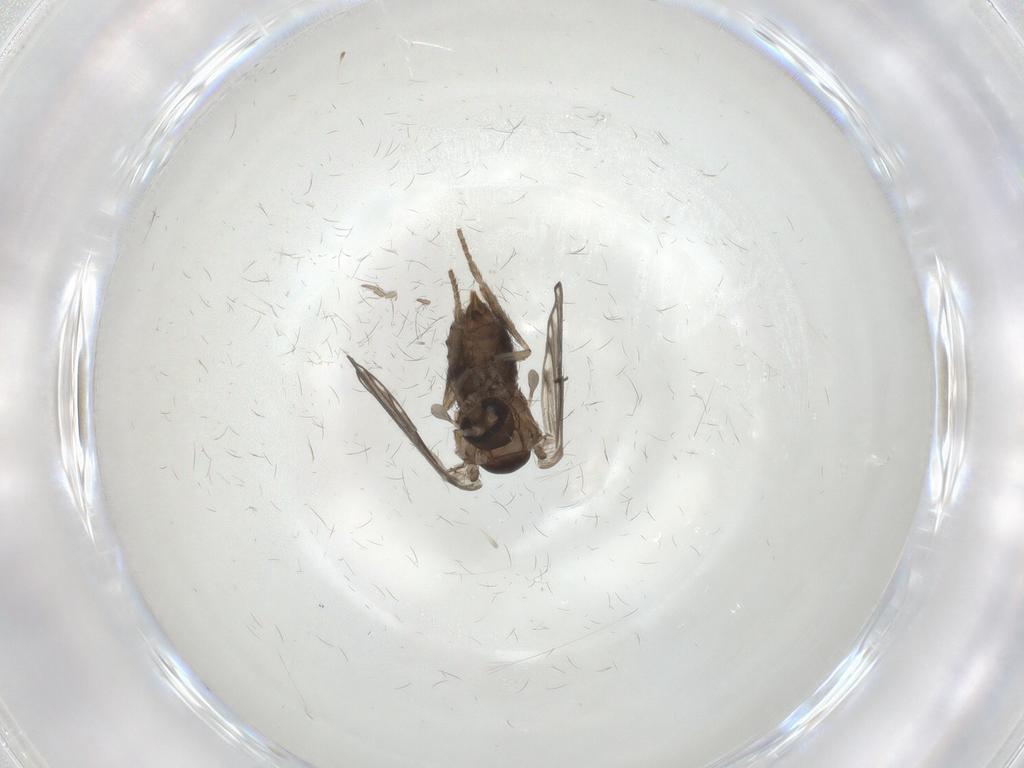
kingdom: Animalia
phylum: Arthropoda
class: Insecta
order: Diptera
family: Psychodidae
